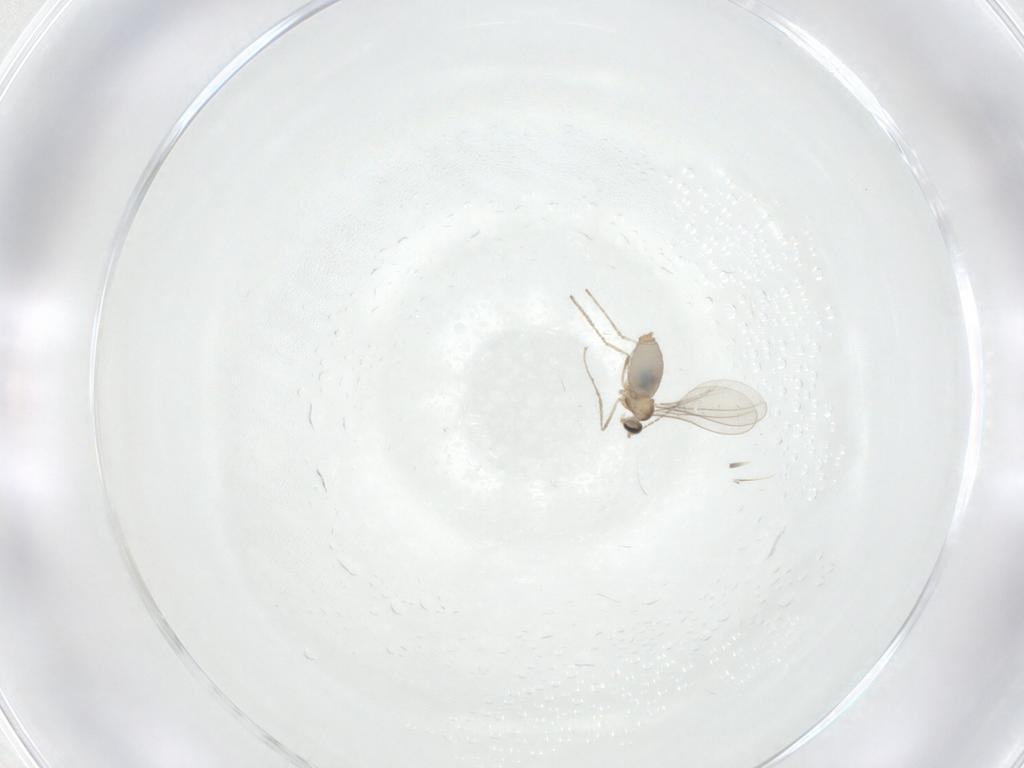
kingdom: Animalia
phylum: Arthropoda
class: Insecta
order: Diptera
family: Cecidomyiidae
